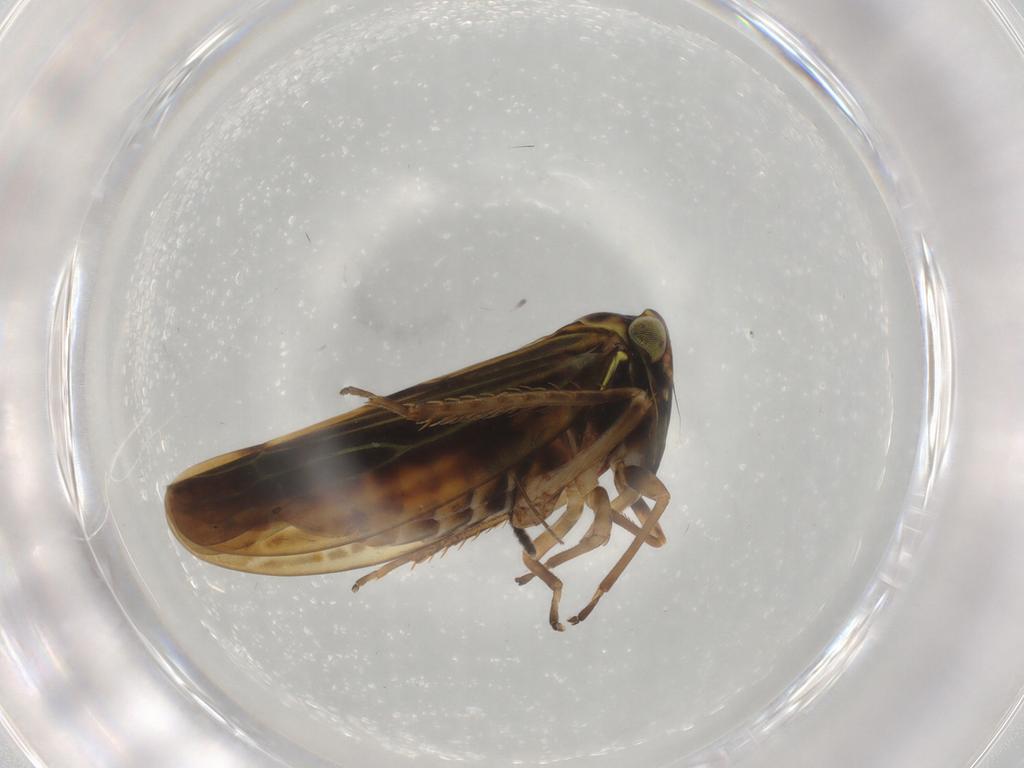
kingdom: Animalia
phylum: Arthropoda
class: Insecta
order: Hemiptera
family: Cicadellidae
